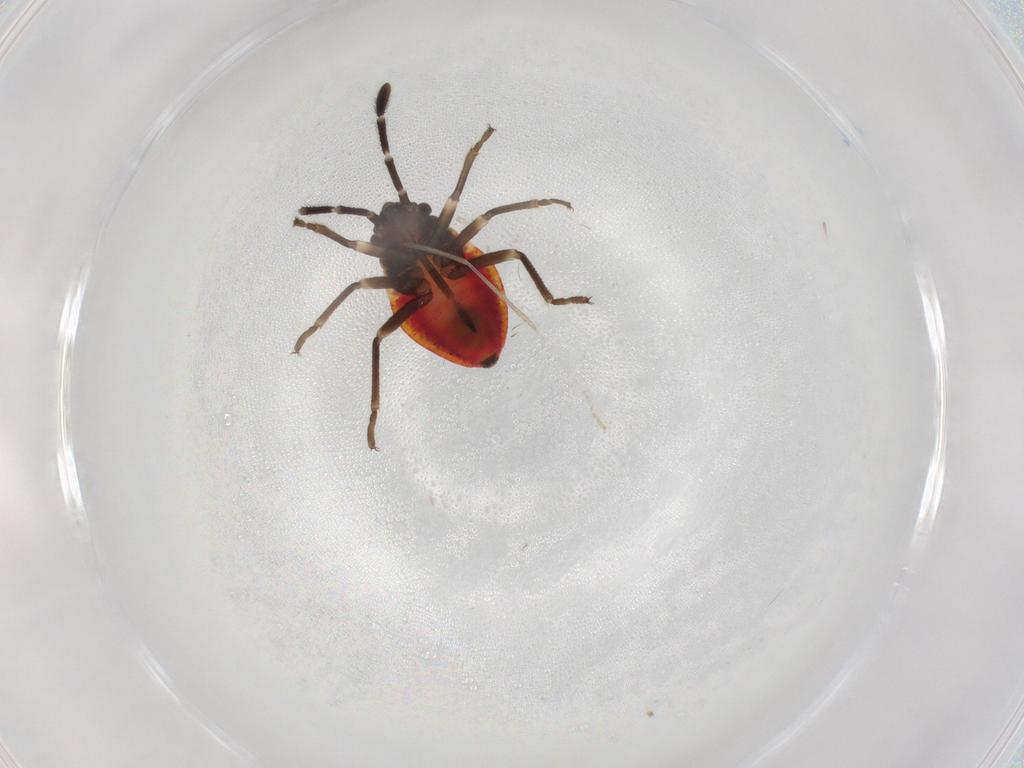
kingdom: Animalia
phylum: Arthropoda
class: Insecta
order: Hemiptera
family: Lygaeidae
